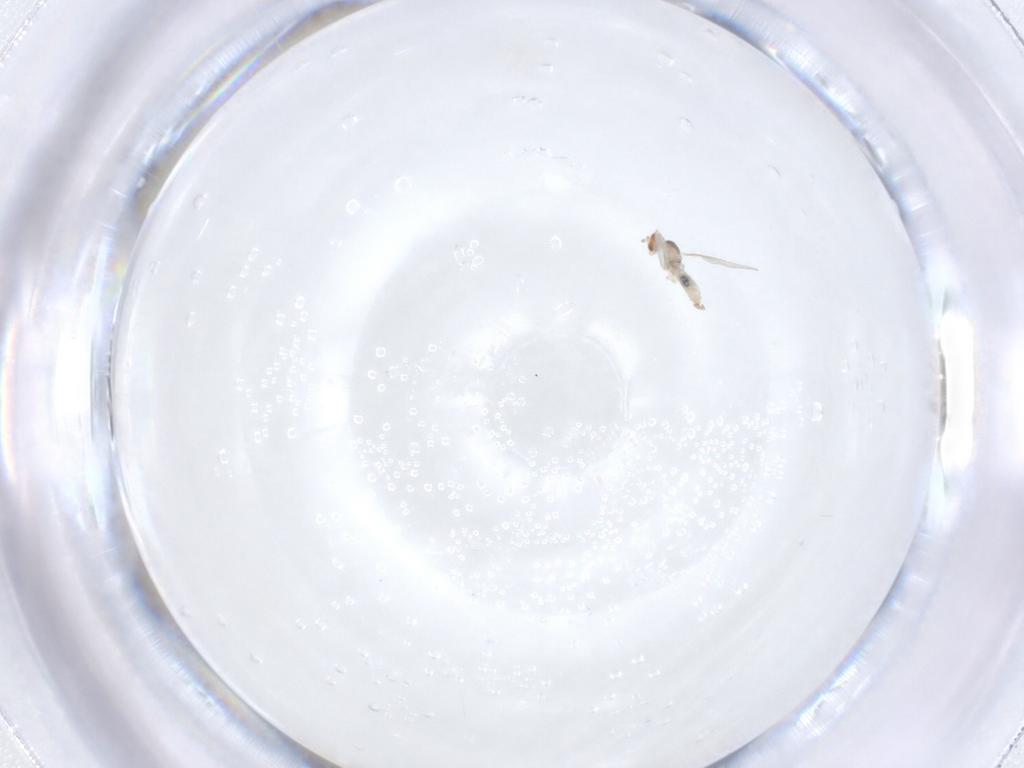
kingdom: Animalia
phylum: Arthropoda
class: Insecta
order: Diptera
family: Cecidomyiidae
